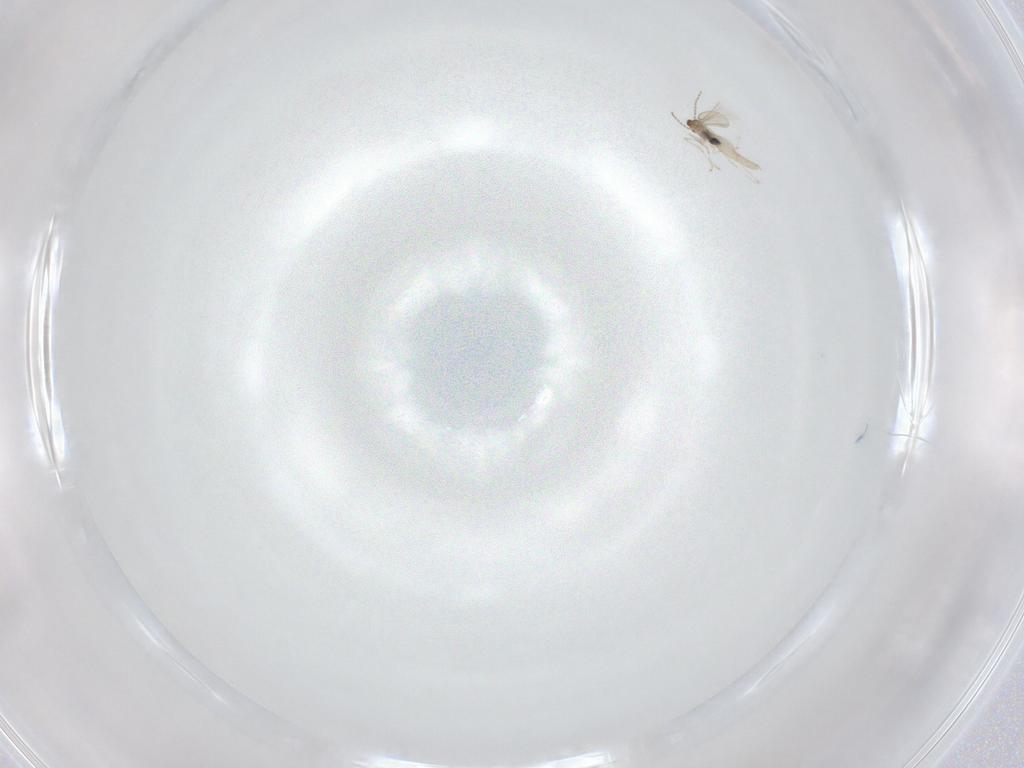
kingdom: Animalia
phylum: Arthropoda
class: Insecta
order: Diptera
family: Cecidomyiidae
